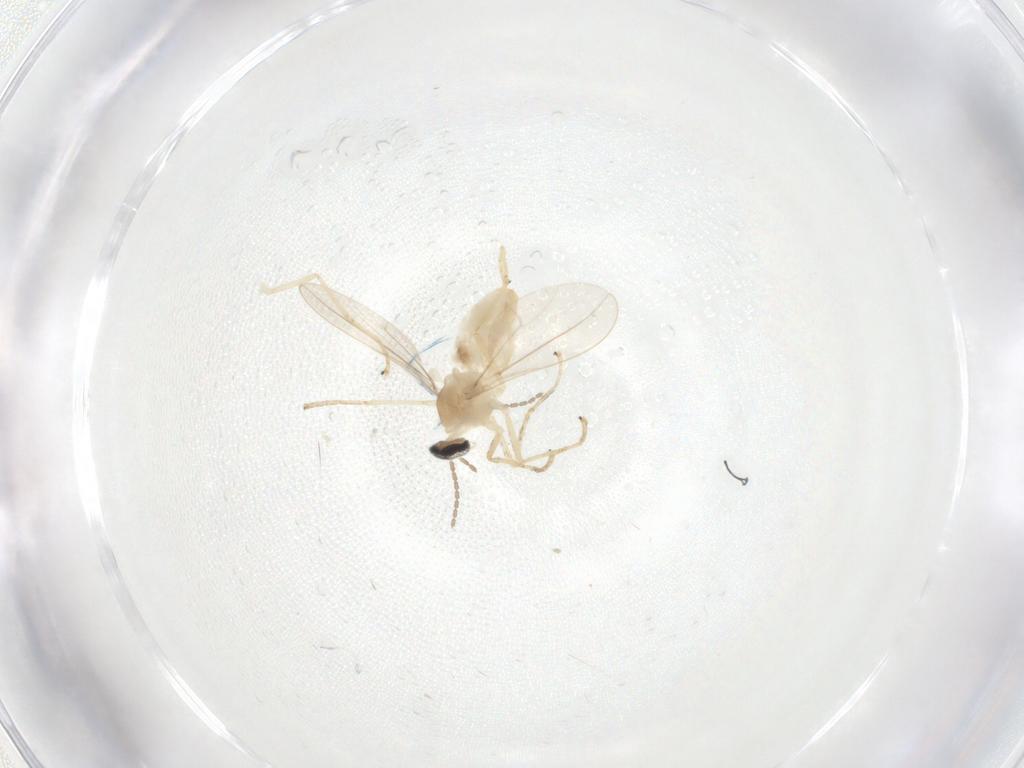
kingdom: Animalia
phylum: Arthropoda
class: Insecta
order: Diptera
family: Cecidomyiidae
